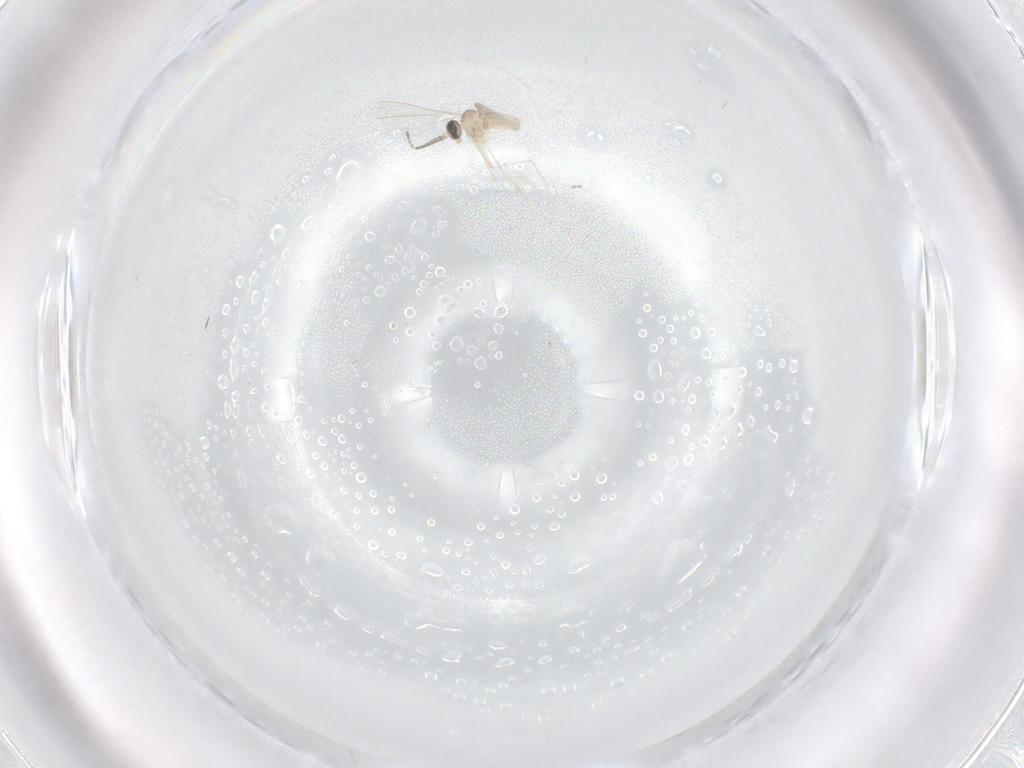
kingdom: Animalia
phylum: Arthropoda
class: Insecta
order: Diptera
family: Cecidomyiidae
